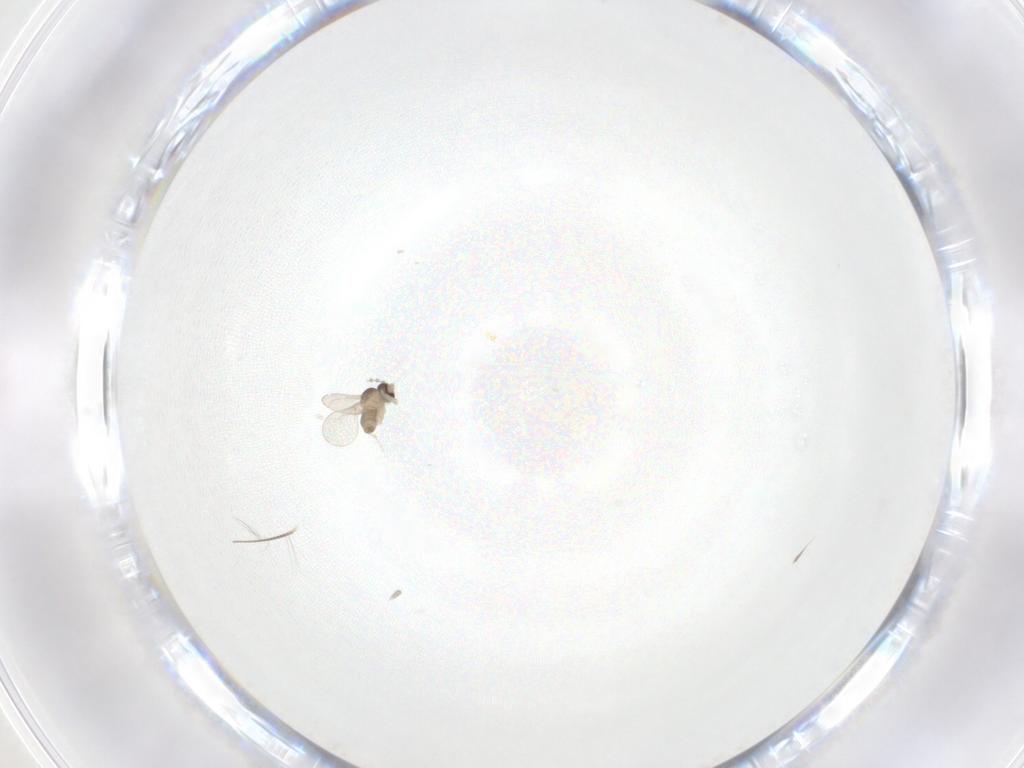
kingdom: Animalia
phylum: Arthropoda
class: Insecta
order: Diptera
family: Cecidomyiidae
